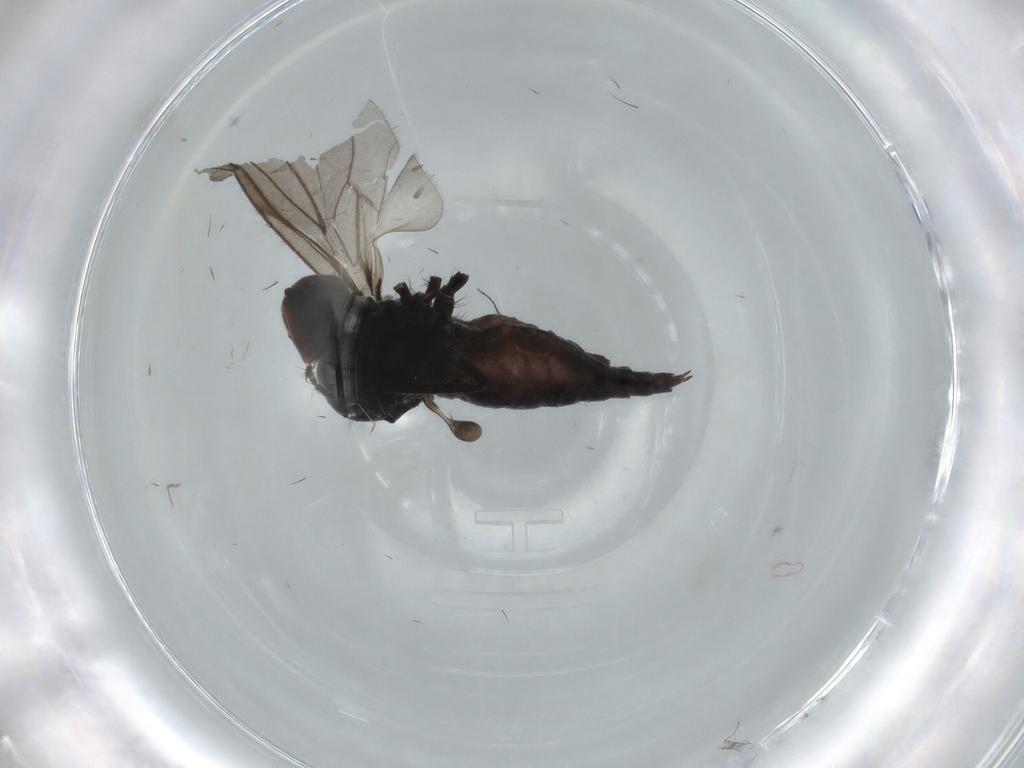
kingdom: Animalia
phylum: Arthropoda
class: Insecta
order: Diptera
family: Hybotidae
